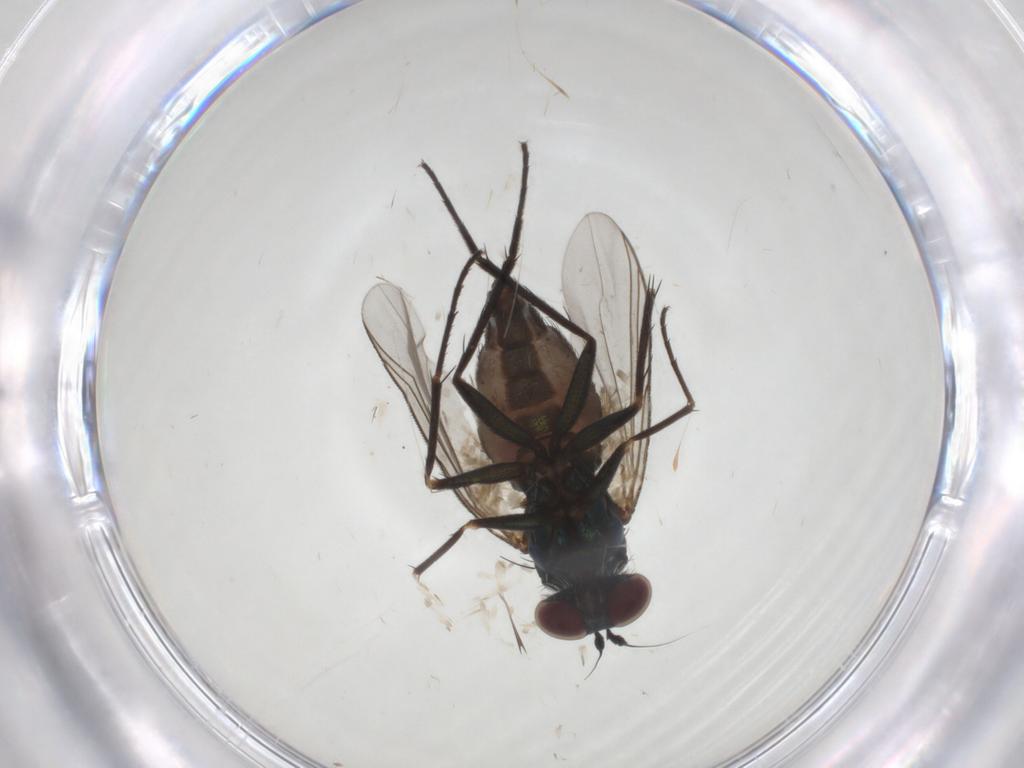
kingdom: Animalia
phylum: Arthropoda
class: Insecta
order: Diptera
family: Dolichopodidae
